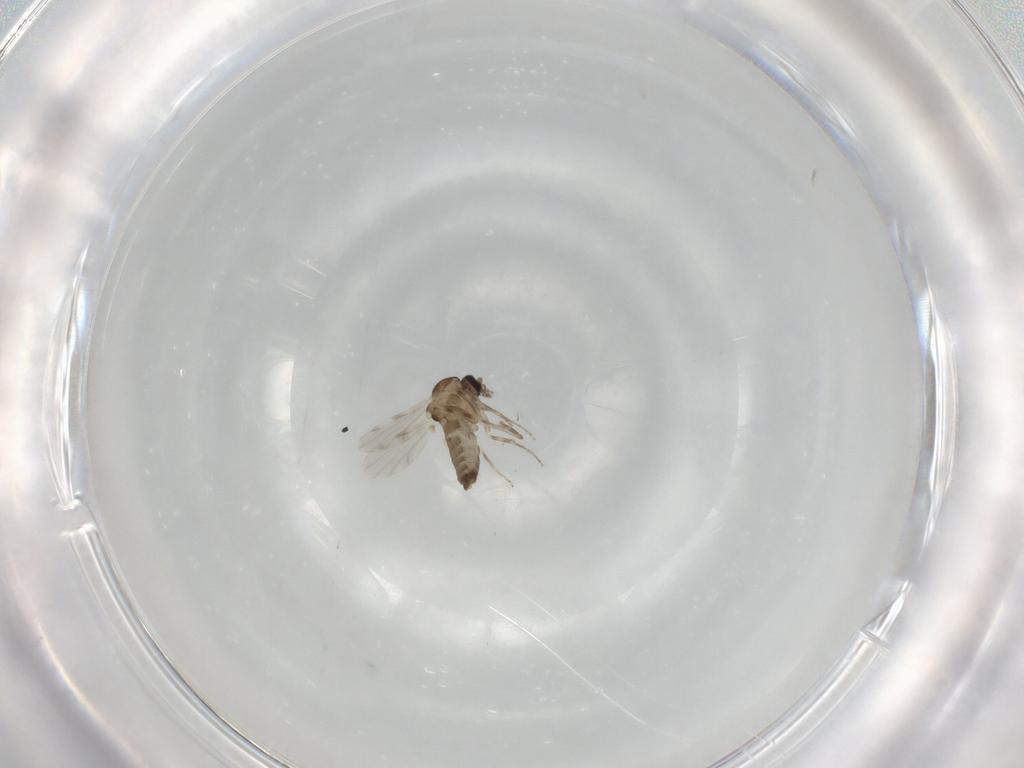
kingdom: Animalia
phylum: Arthropoda
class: Insecta
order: Diptera
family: Ceratopogonidae
